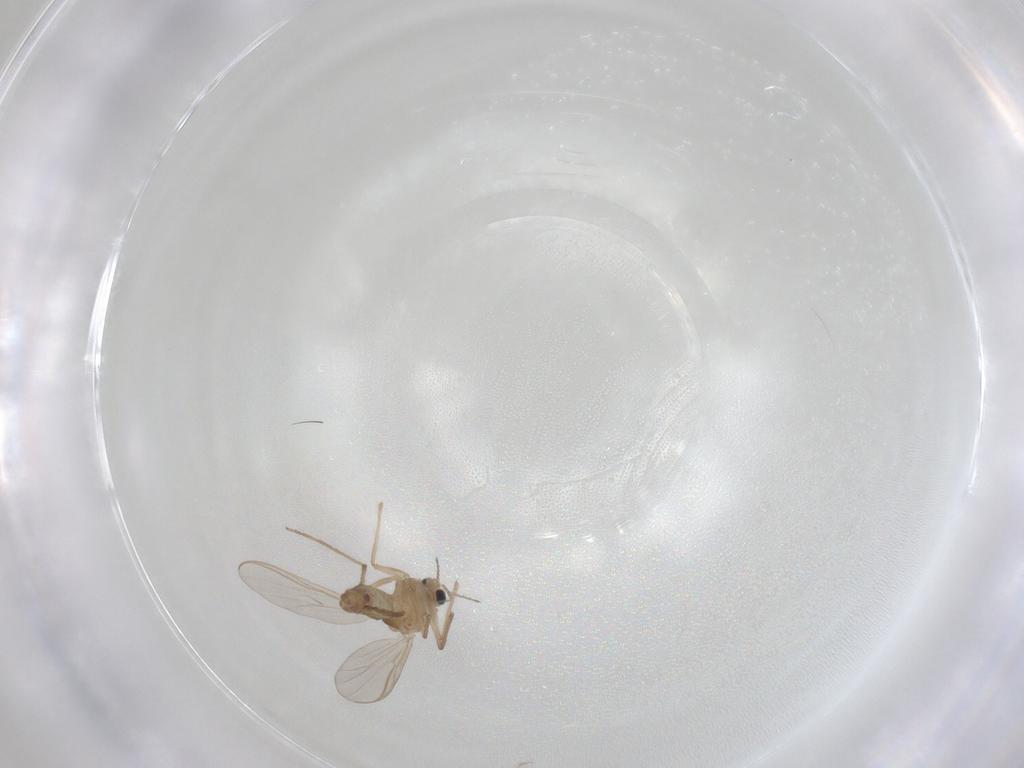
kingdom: Animalia
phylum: Arthropoda
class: Insecta
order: Diptera
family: Chironomidae
